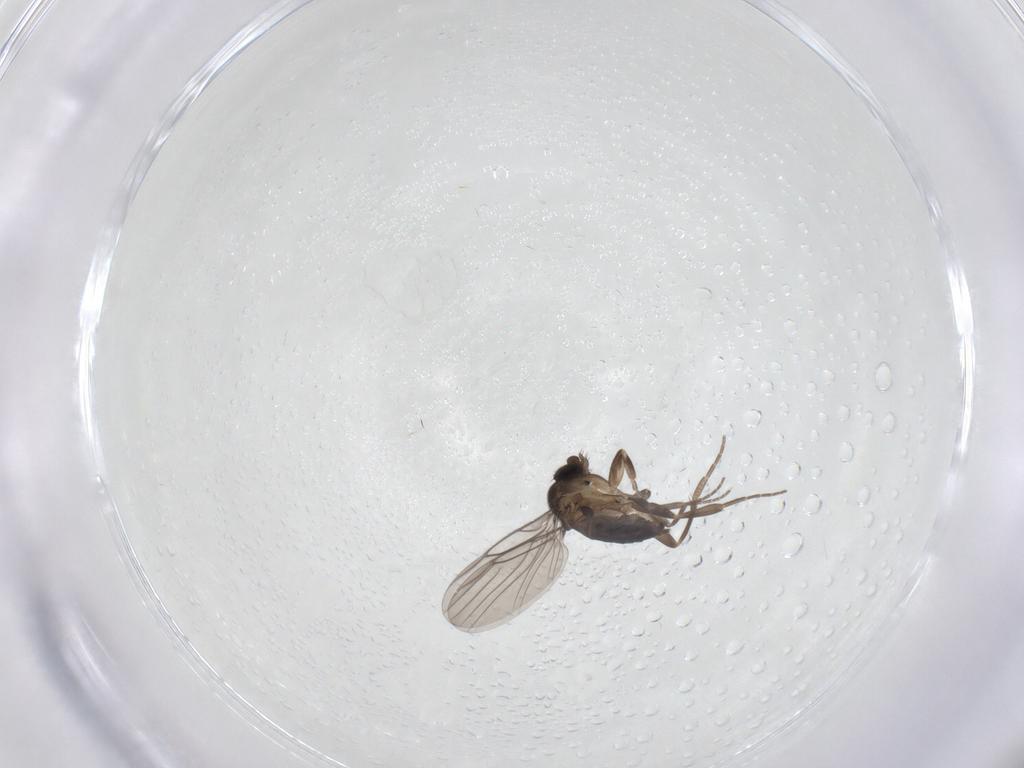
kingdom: Animalia
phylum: Arthropoda
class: Insecta
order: Diptera
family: Phoridae
